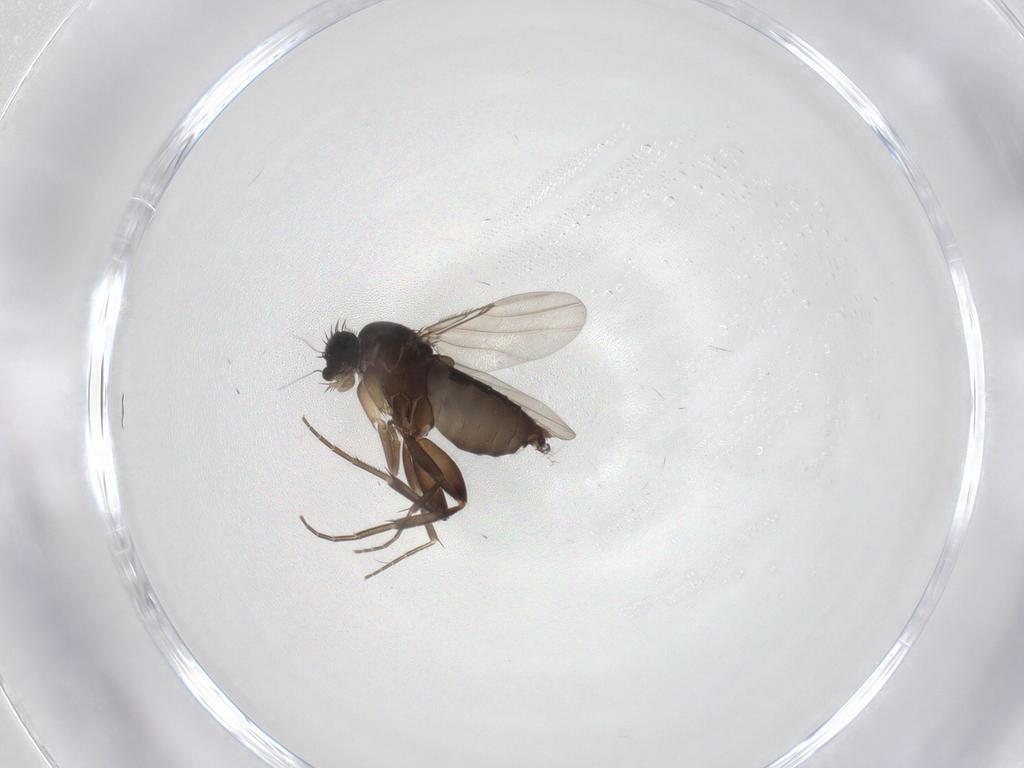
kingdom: Animalia
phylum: Arthropoda
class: Insecta
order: Diptera
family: Phoridae
